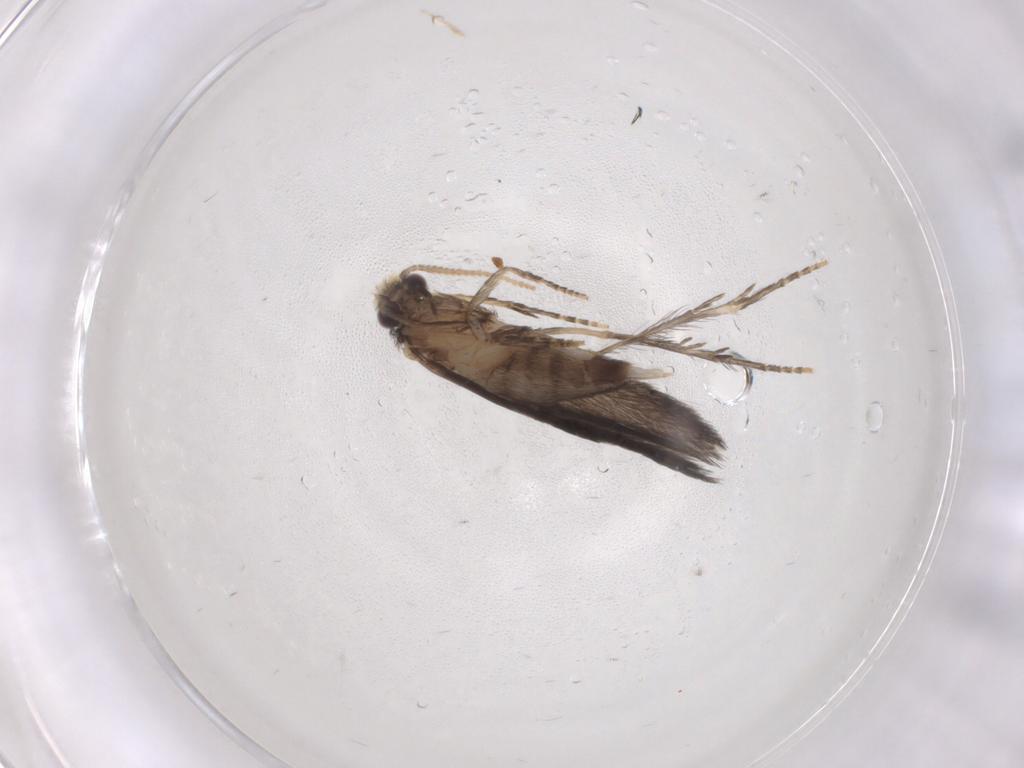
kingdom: Animalia
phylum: Arthropoda
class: Insecta
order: Trichoptera
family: Hydroptilidae
